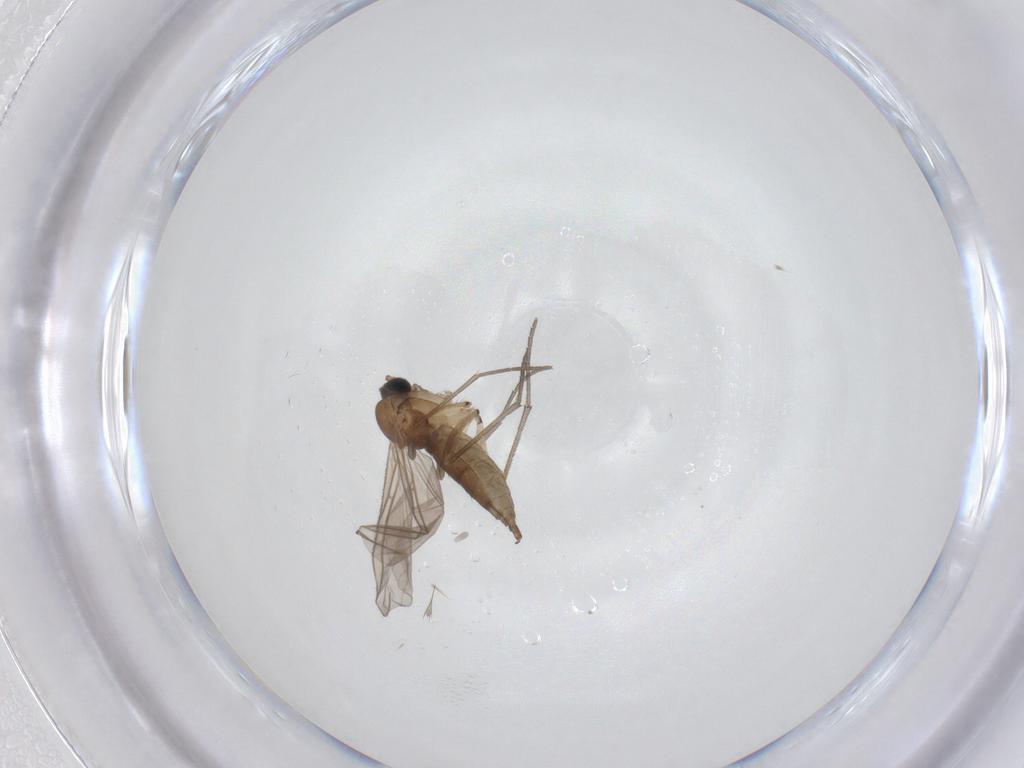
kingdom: Animalia
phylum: Arthropoda
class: Insecta
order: Diptera
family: Sciaridae
